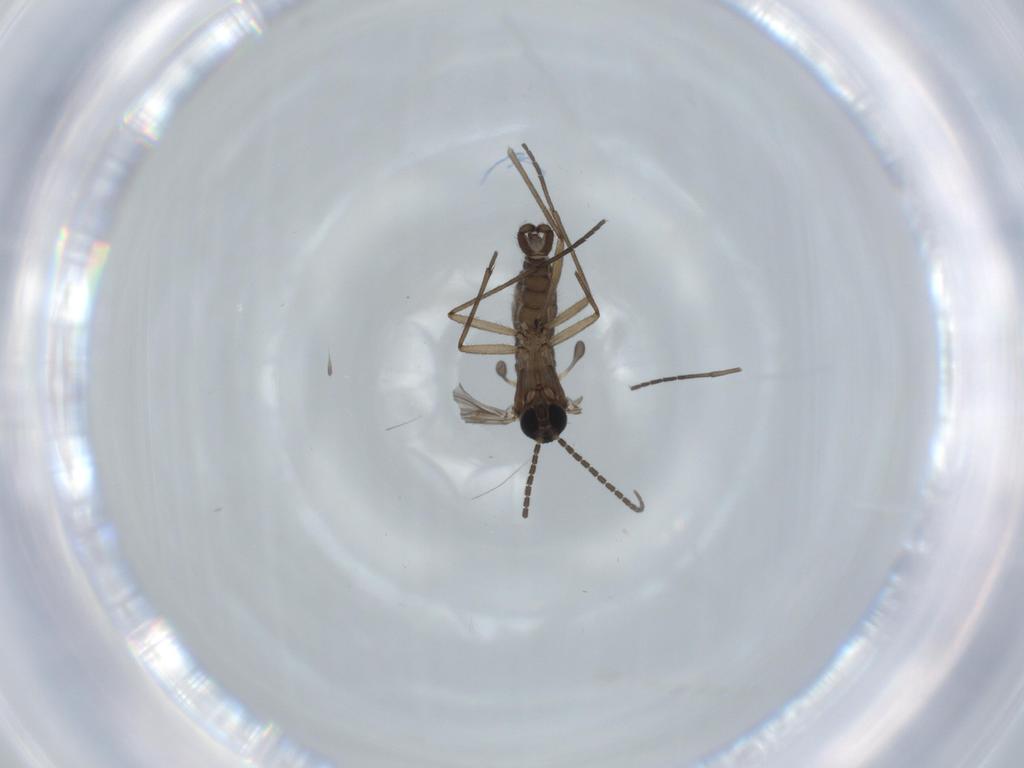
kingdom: Animalia
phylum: Arthropoda
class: Insecta
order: Diptera
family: Sciaridae
